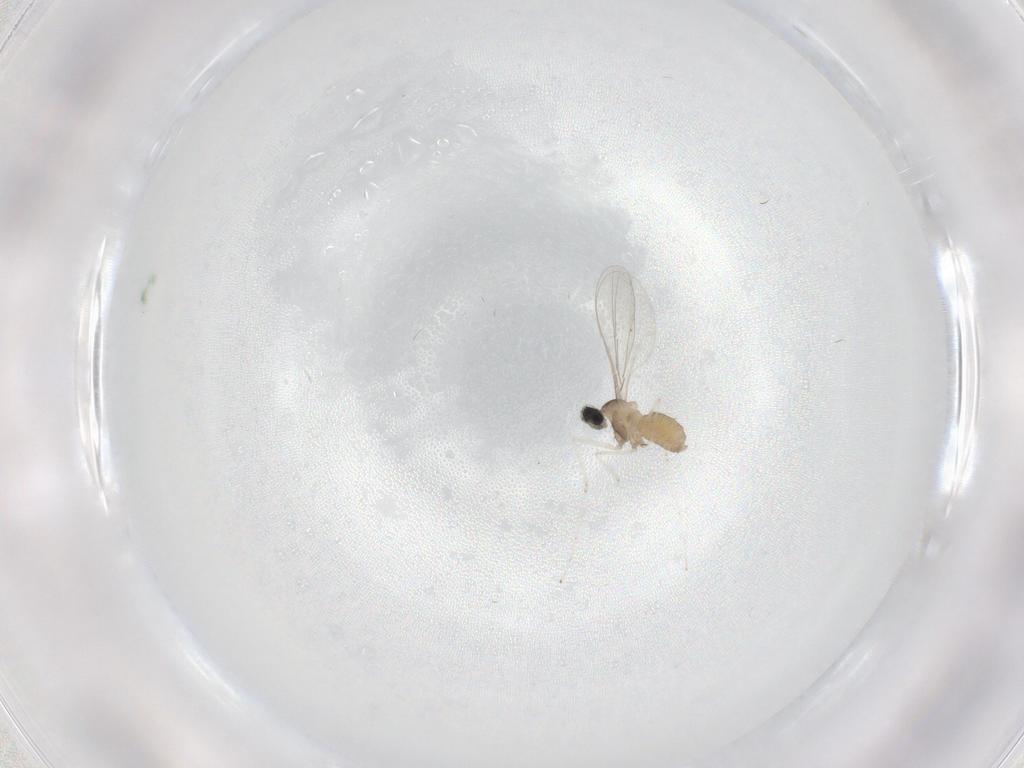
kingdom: Animalia
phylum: Arthropoda
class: Insecta
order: Diptera
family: Cecidomyiidae
